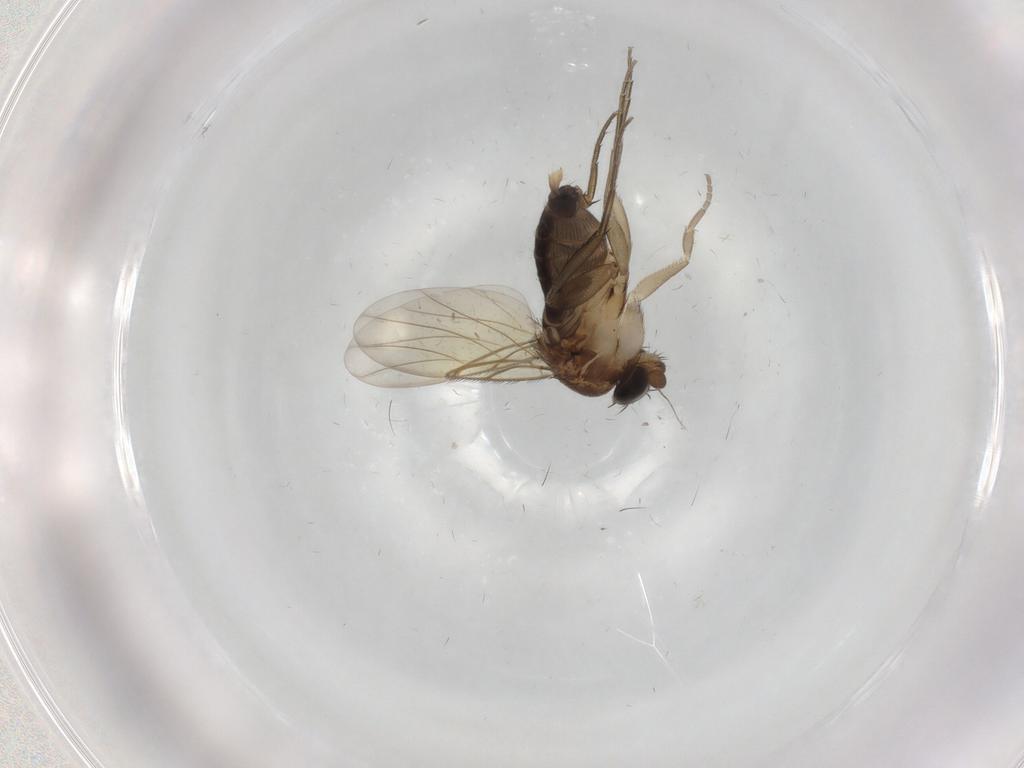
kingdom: Animalia
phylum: Arthropoda
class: Insecta
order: Diptera
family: Phoridae
